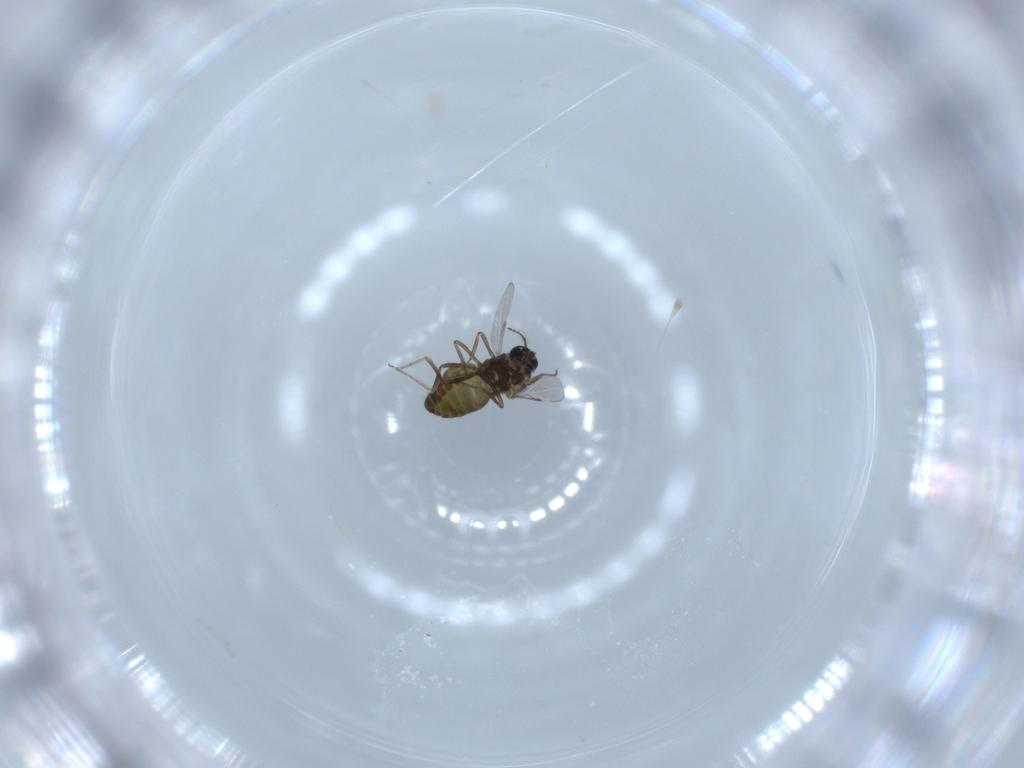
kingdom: Animalia
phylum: Arthropoda
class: Insecta
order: Diptera
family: Cecidomyiidae
